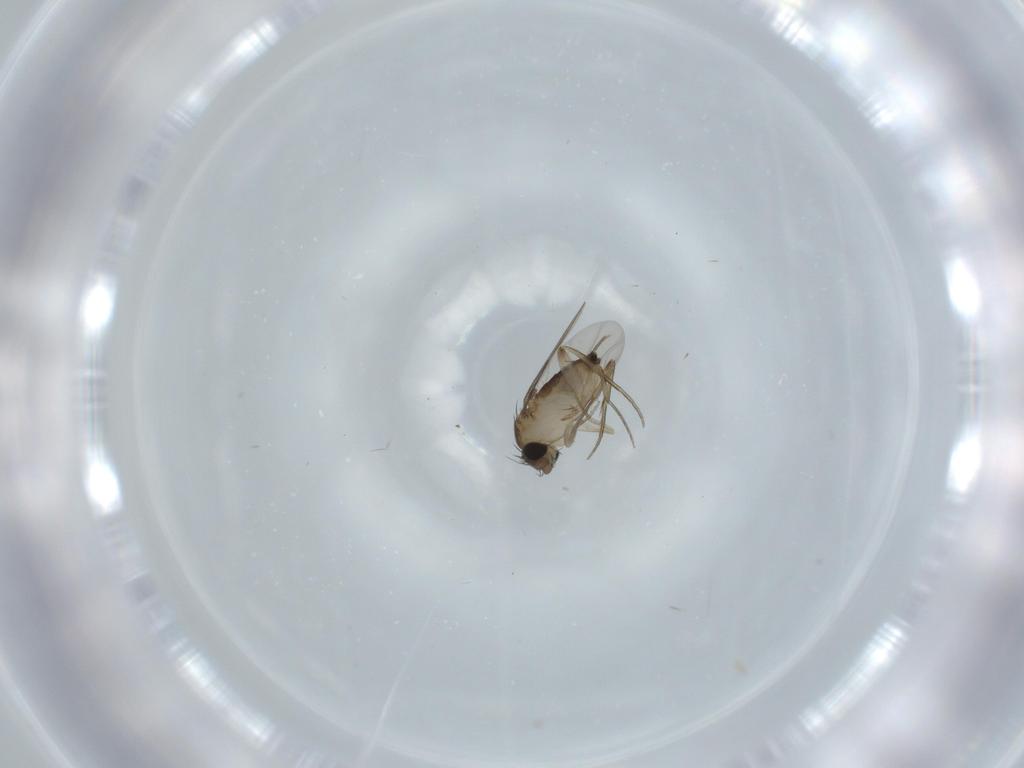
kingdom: Animalia
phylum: Arthropoda
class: Insecta
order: Diptera
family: Phoridae
